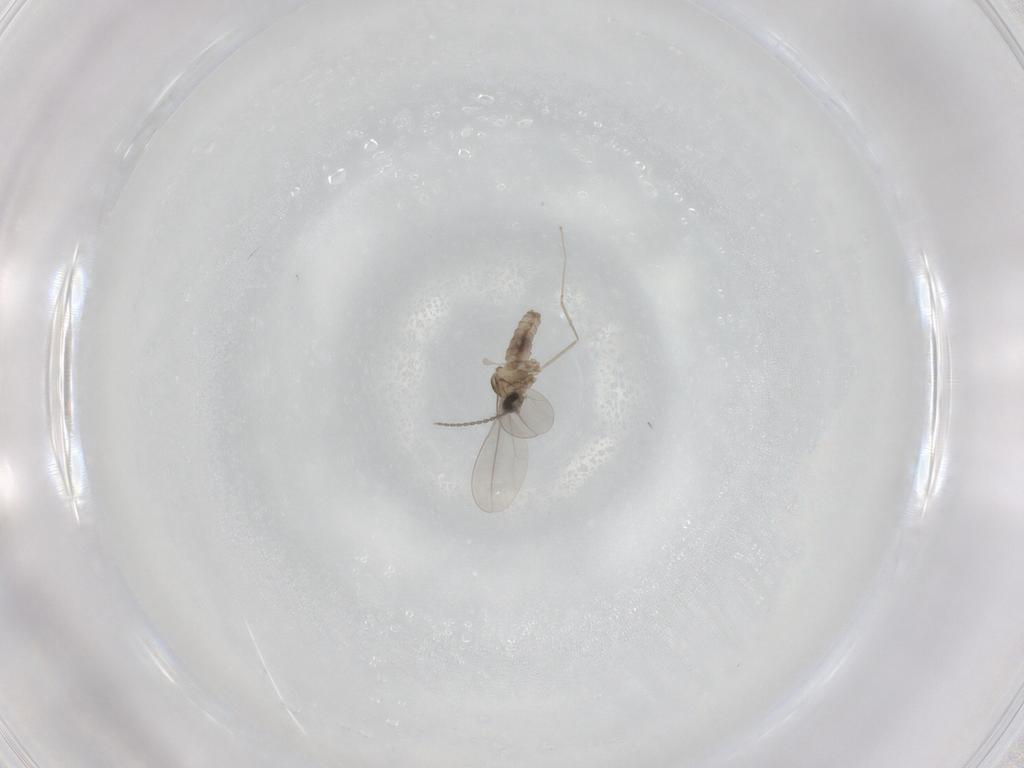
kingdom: Animalia
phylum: Arthropoda
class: Insecta
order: Diptera
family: Cecidomyiidae
